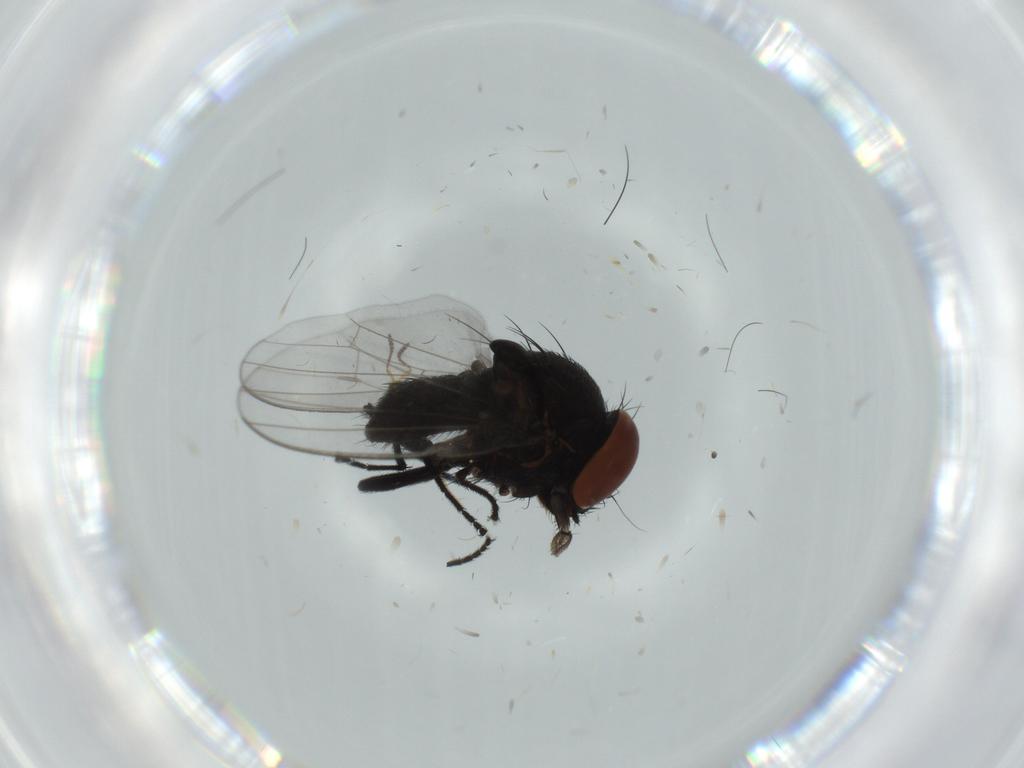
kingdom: Animalia
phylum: Arthropoda
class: Insecta
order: Diptera
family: Milichiidae
